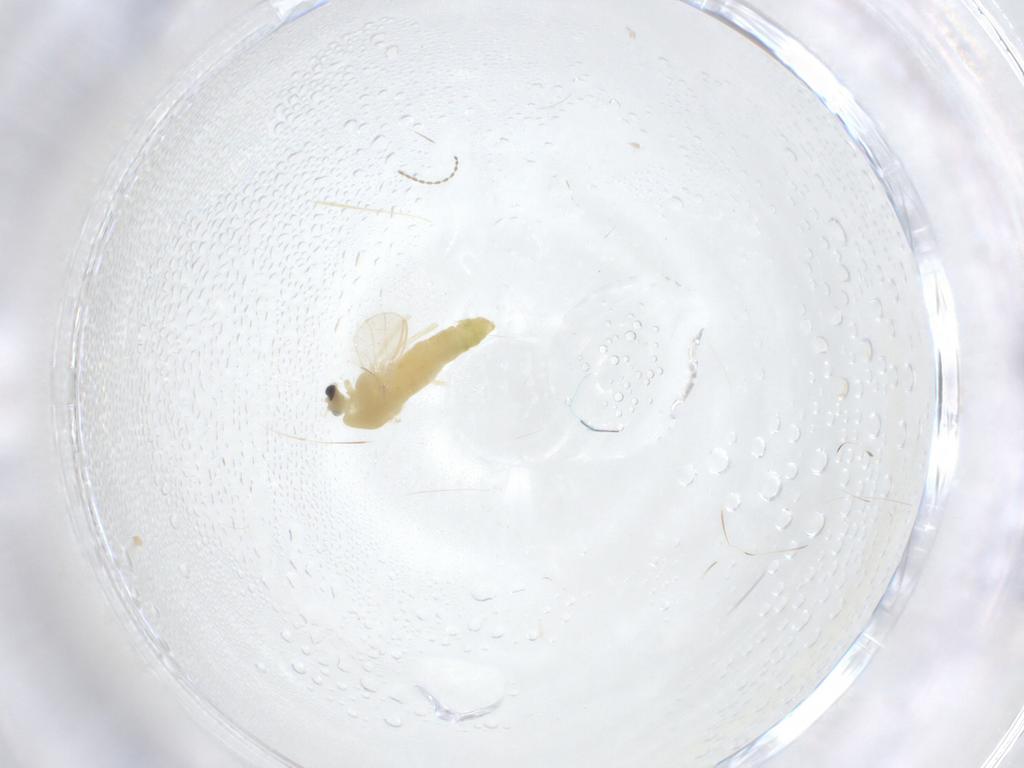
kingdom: Animalia
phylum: Arthropoda
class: Insecta
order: Diptera
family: Chironomidae
